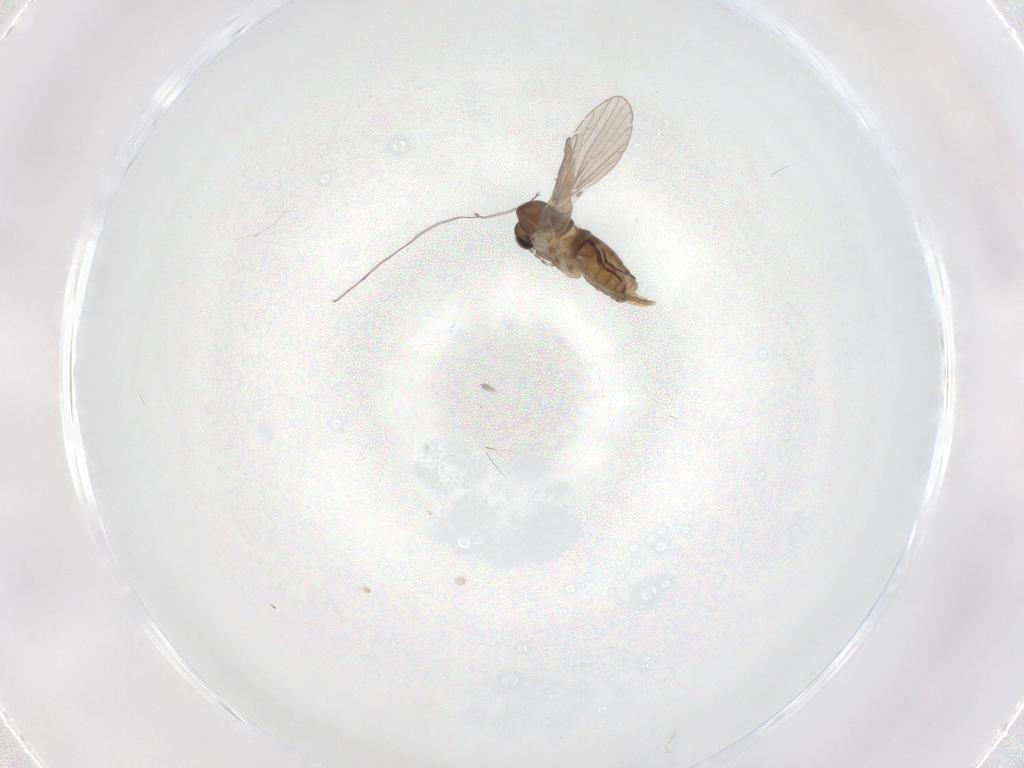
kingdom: Animalia
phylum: Arthropoda
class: Insecta
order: Diptera
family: Psychodidae
